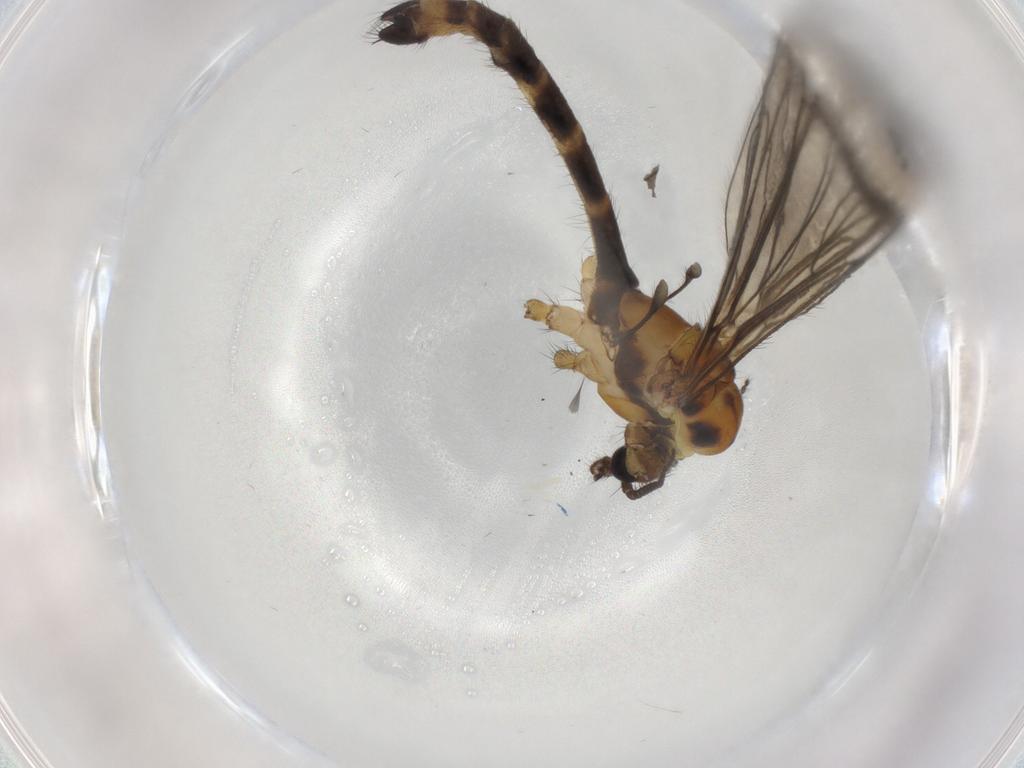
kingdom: Animalia
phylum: Arthropoda
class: Insecta
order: Diptera
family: Limoniidae
